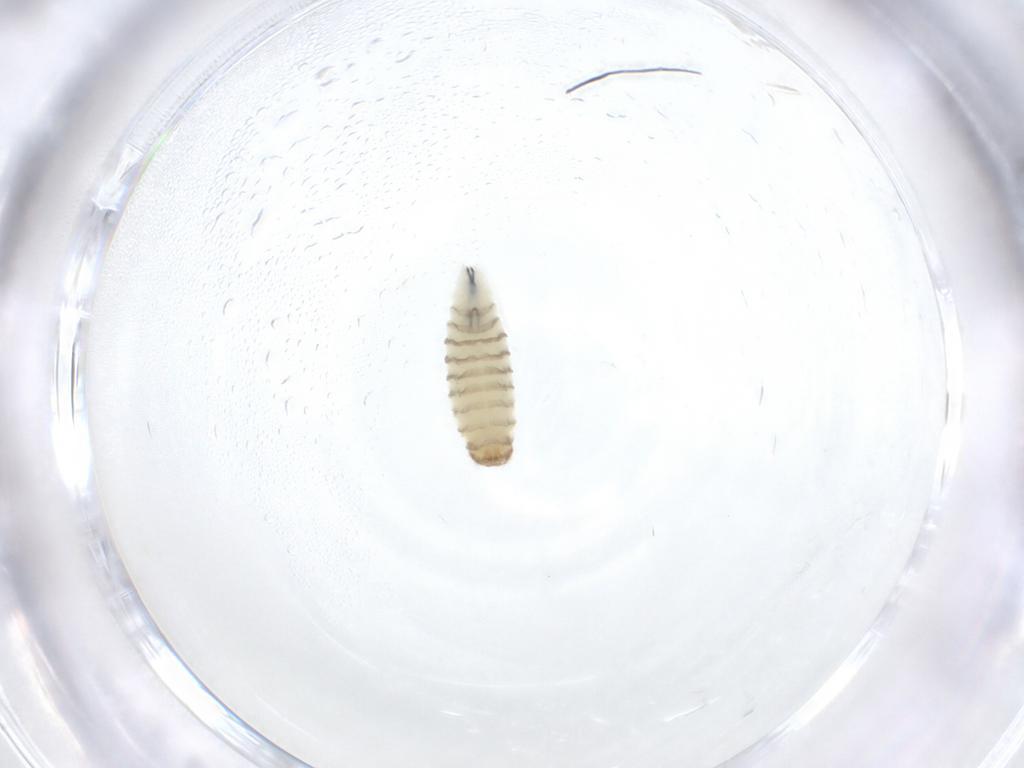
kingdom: Animalia
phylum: Arthropoda
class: Insecta
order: Diptera
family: Sarcophagidae
